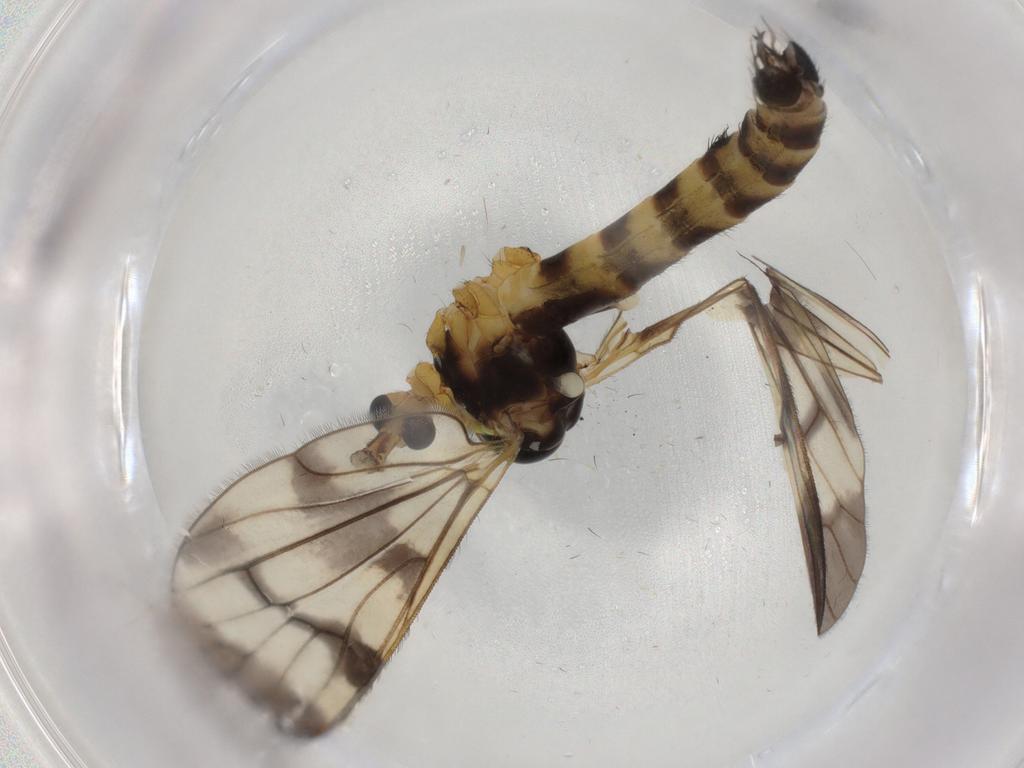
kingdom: Animalia
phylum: Arthropoda
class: Insecta
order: Diptera
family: Limoniidae
